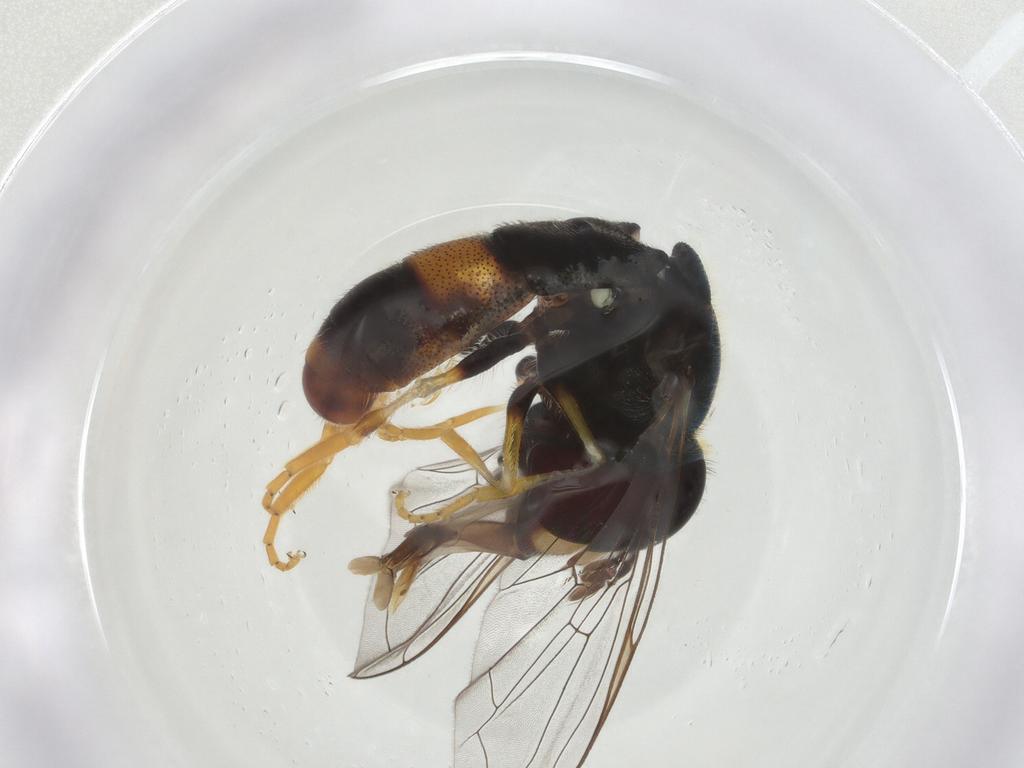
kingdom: Animalia
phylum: Arthropoda
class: Insecta
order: Diptera
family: Syrphidae
